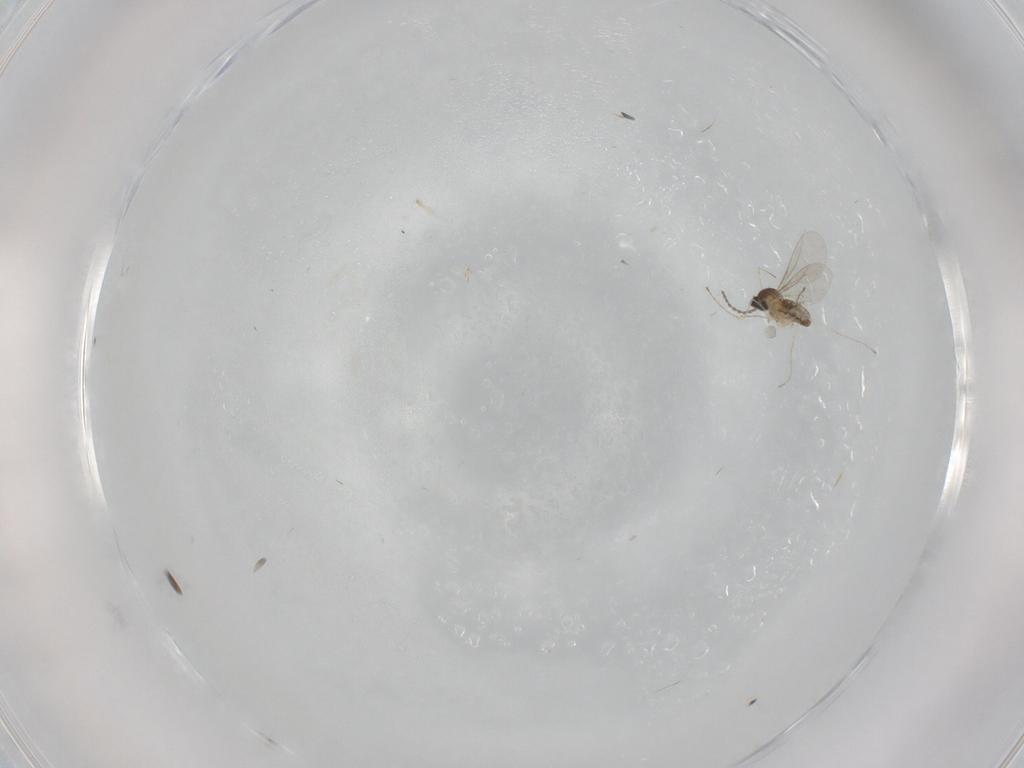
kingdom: Animalia
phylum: Arthropoda
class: Insecta
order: Diptera
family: Cecidomyiidae
